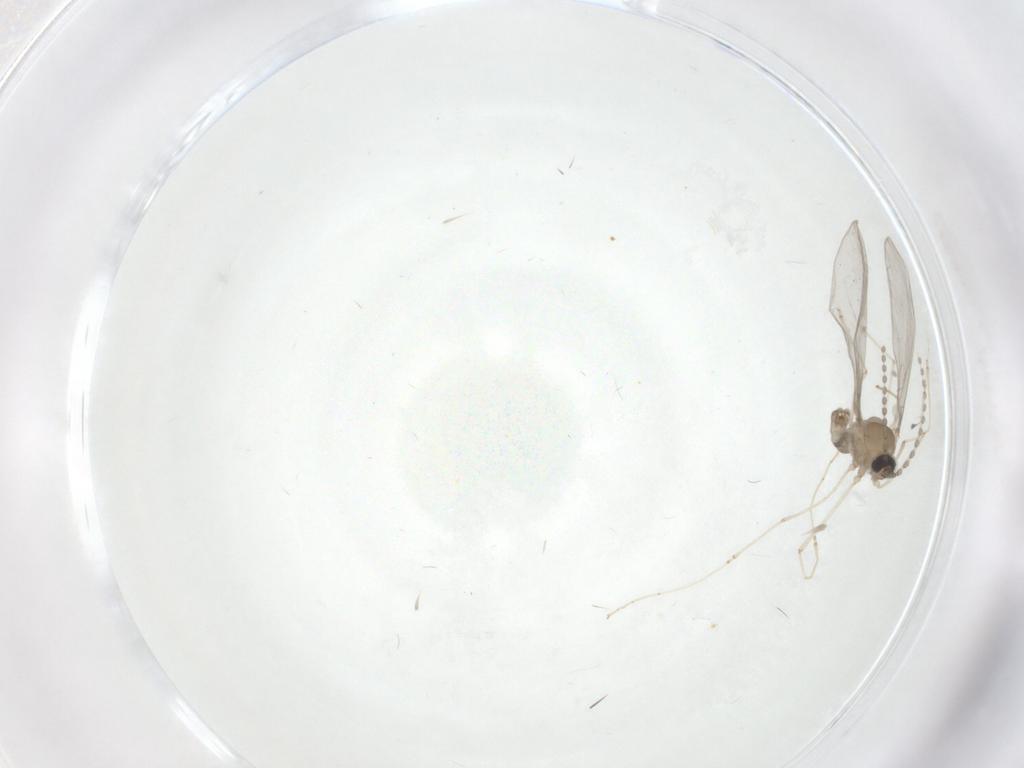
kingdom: Animalia
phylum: Arthropoda
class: Insecta
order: Diptera
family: Cecidomyiidae
